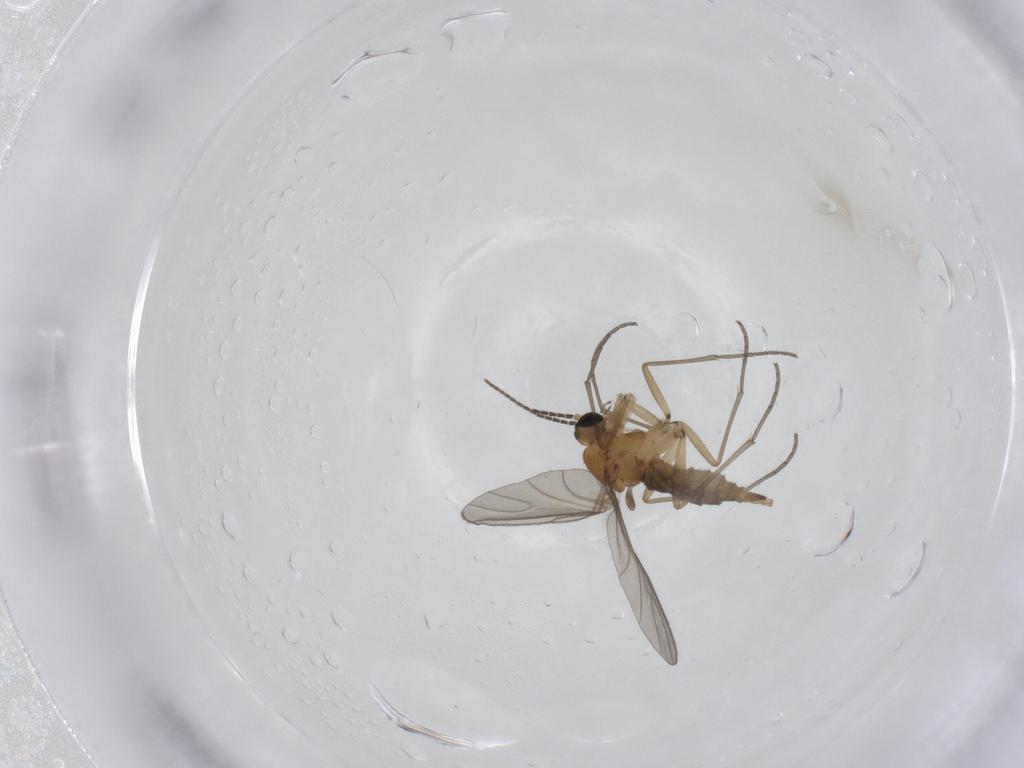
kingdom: Animalia
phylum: Arthropoda
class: Insecta
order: Diptera
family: Sciaridae
